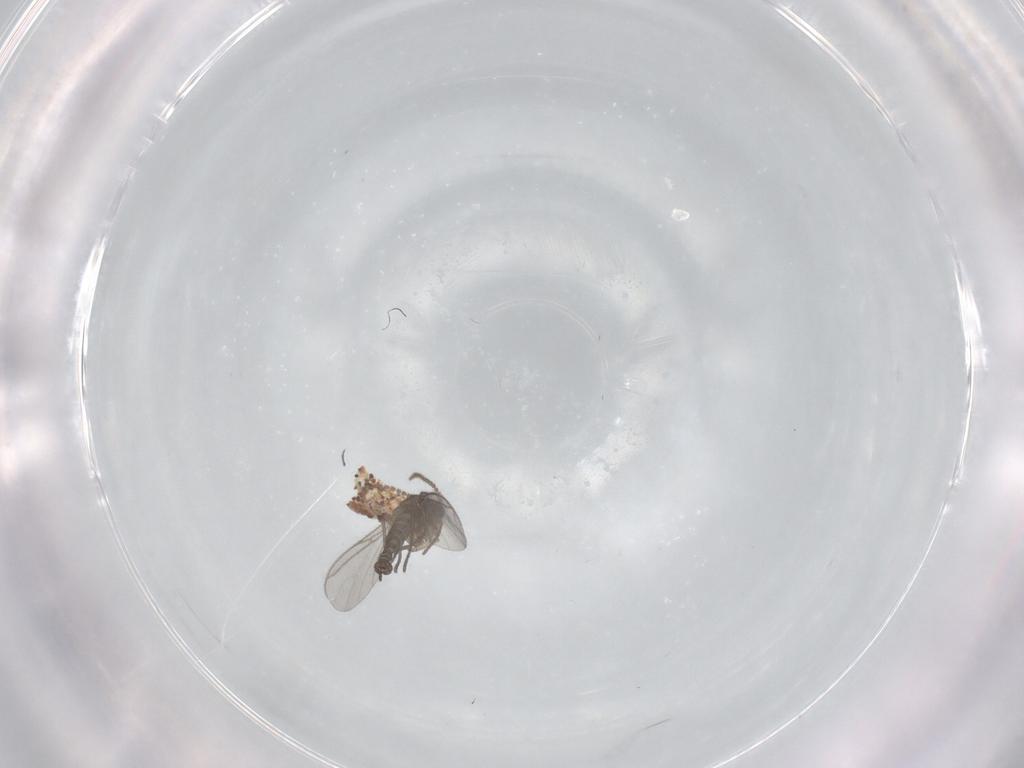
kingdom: Animalia
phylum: Arthropoda
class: Insecta
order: Diptera
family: Sciaridae
